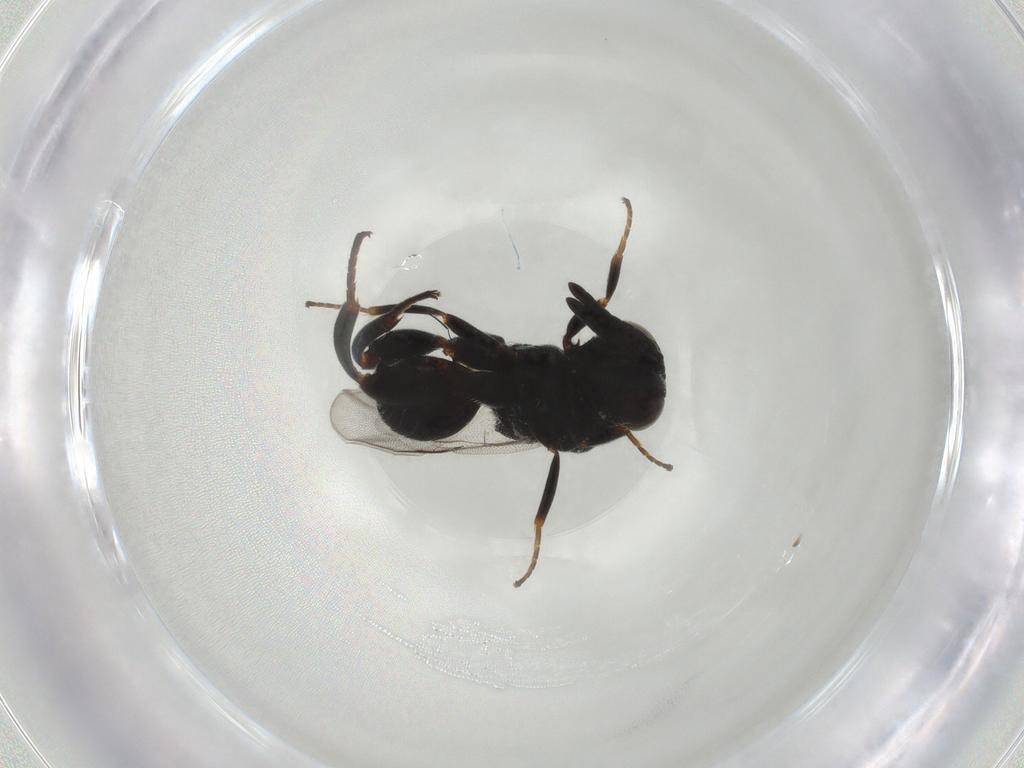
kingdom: Animalia
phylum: Arthropoda
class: Insecta
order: Hymenoptera
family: Chalcididae
